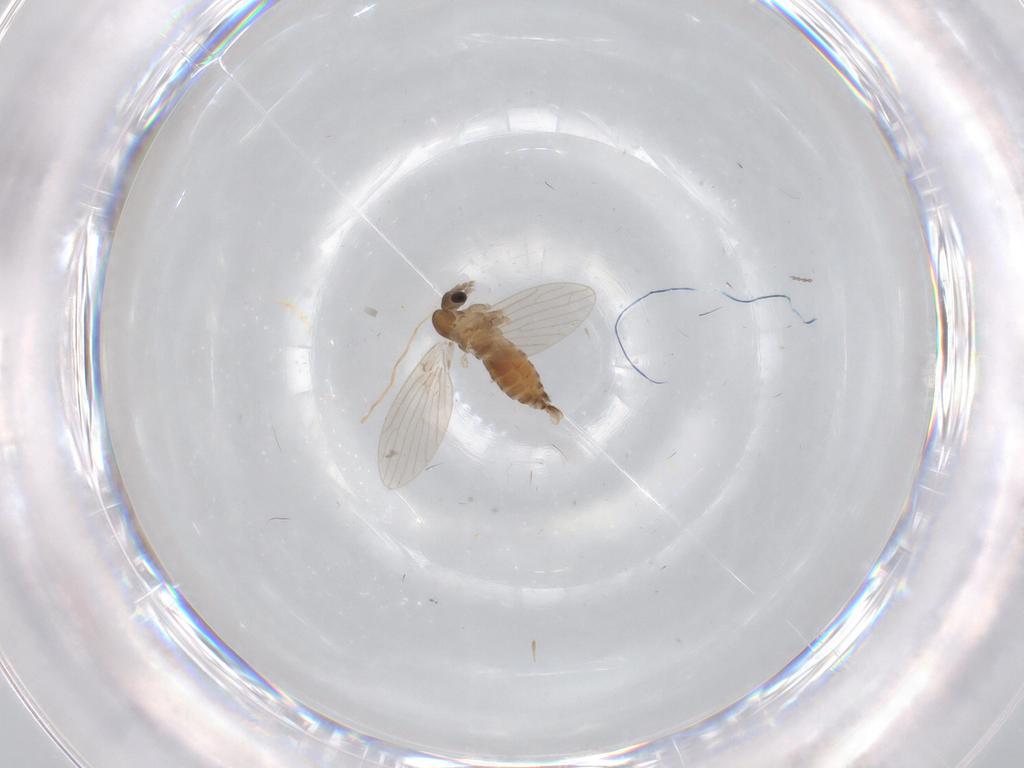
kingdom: Animalia
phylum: Arthropoda
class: Insecta
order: Diptera
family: Psychodidae
